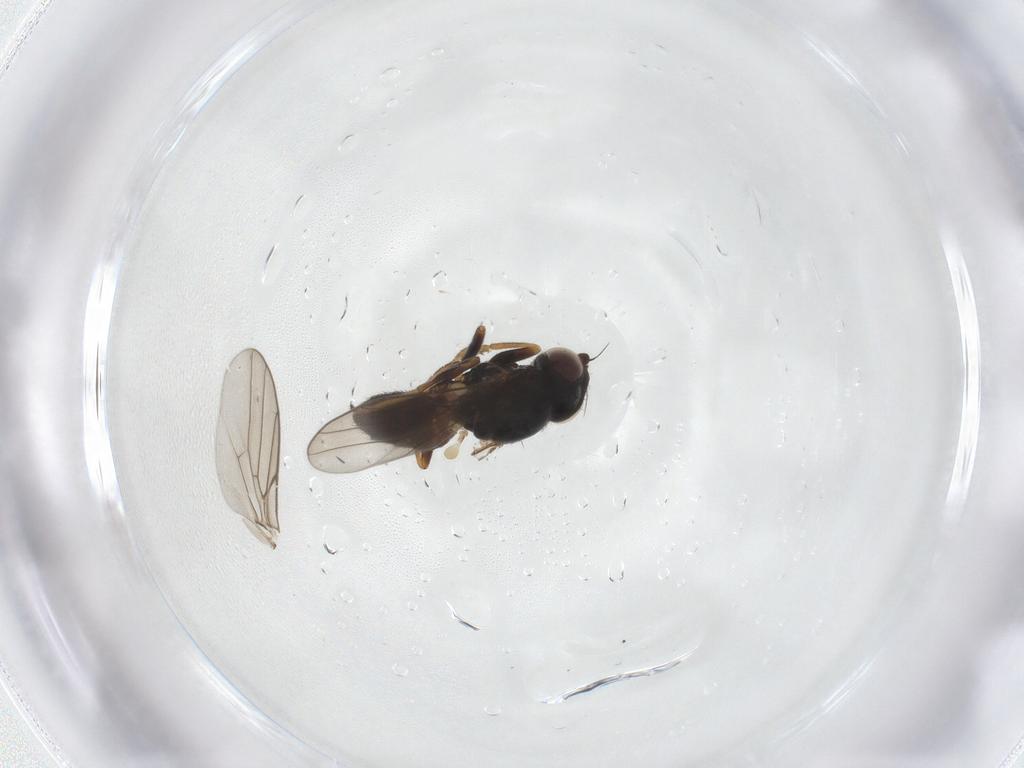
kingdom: Animalia
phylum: Arthropoda
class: Insecta
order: Diptera
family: Chloropidae
